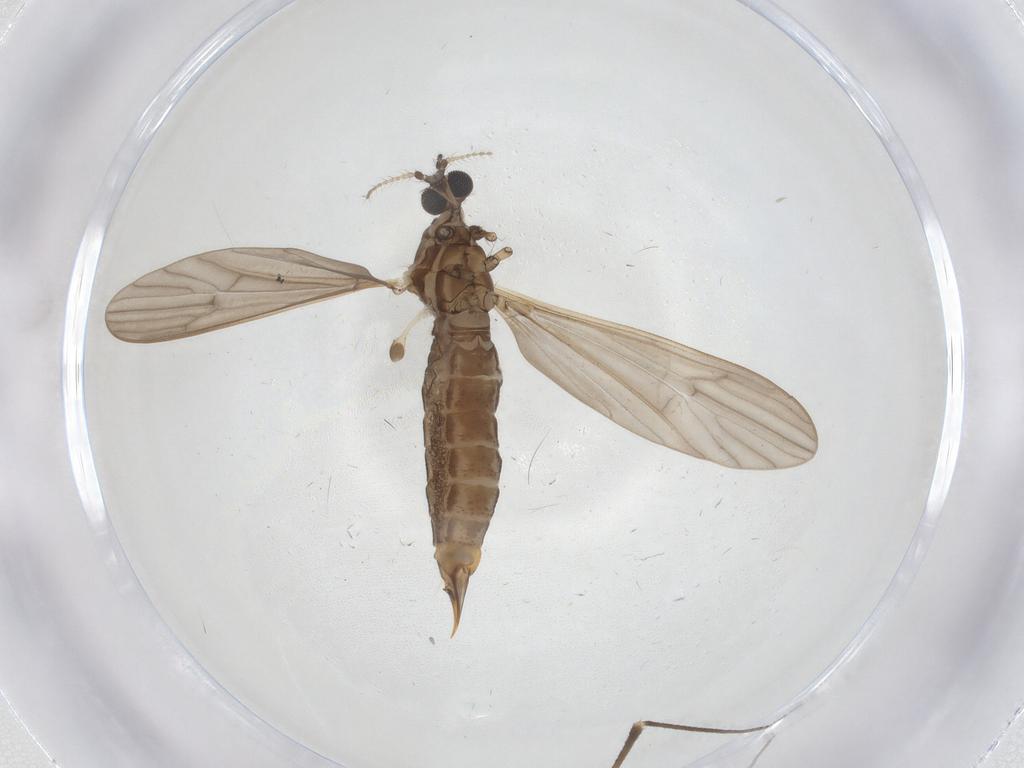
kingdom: Animalia
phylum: Arthropoda
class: Insecta
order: Diptera
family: Limoniidae
